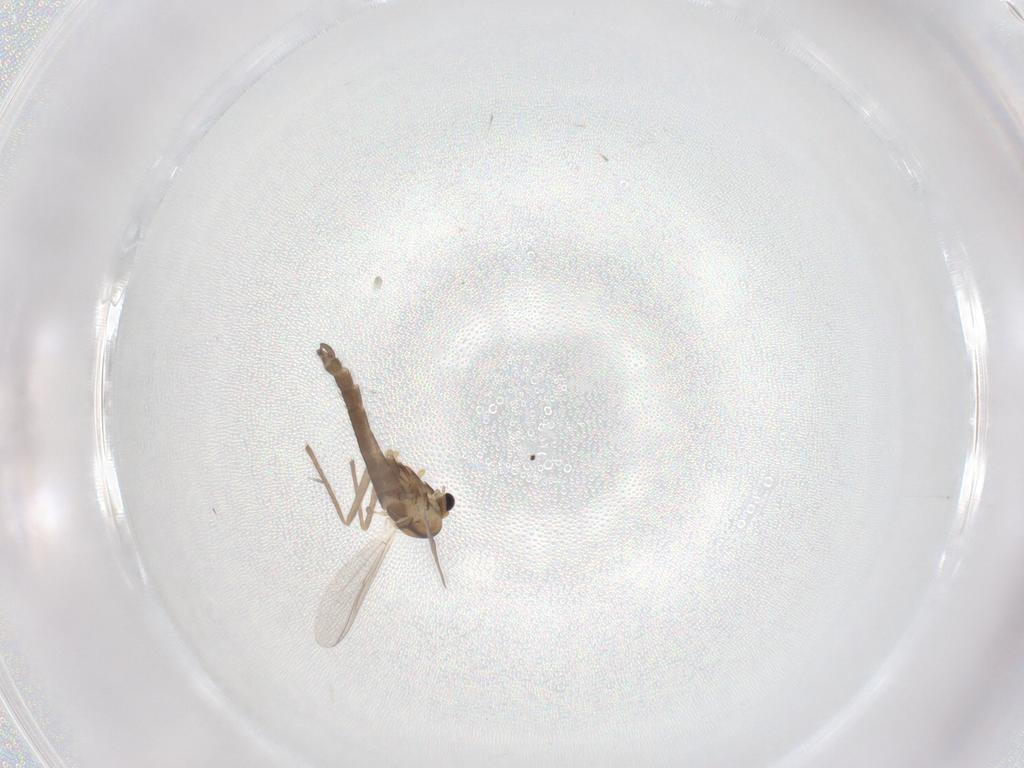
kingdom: Animalia
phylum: Arthropoda
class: Insecta
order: Diptera
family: Chironomidae
